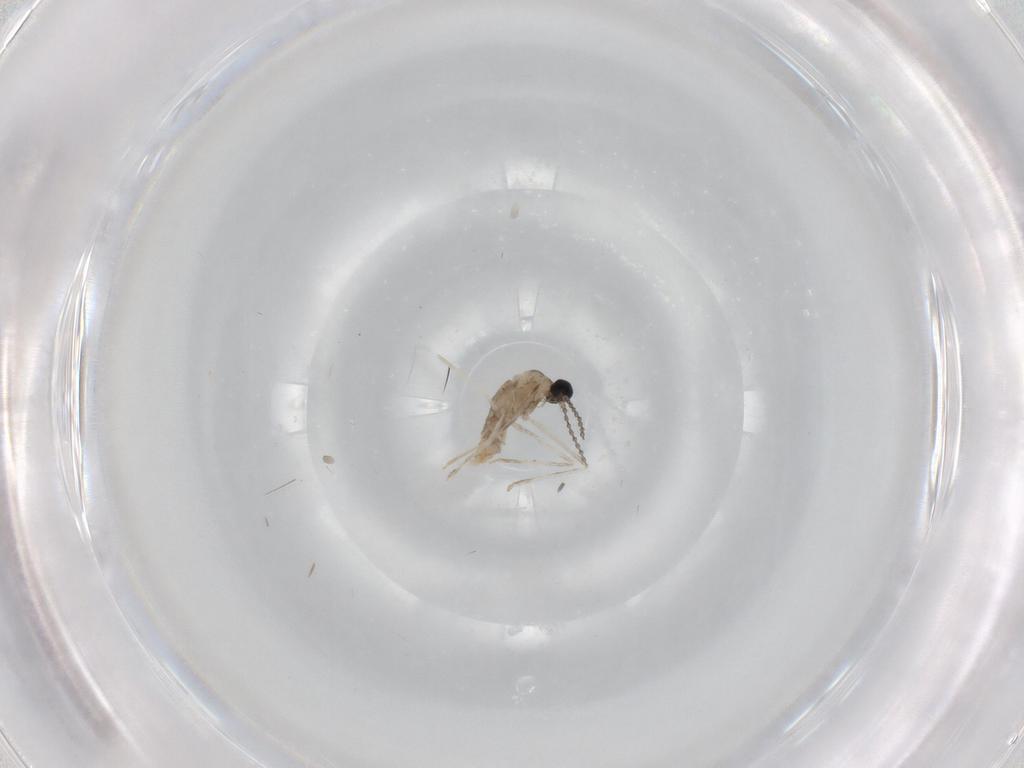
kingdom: Animalia
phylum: Arthropoda
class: Insecta
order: Diptera
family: Cecidomyiidae
